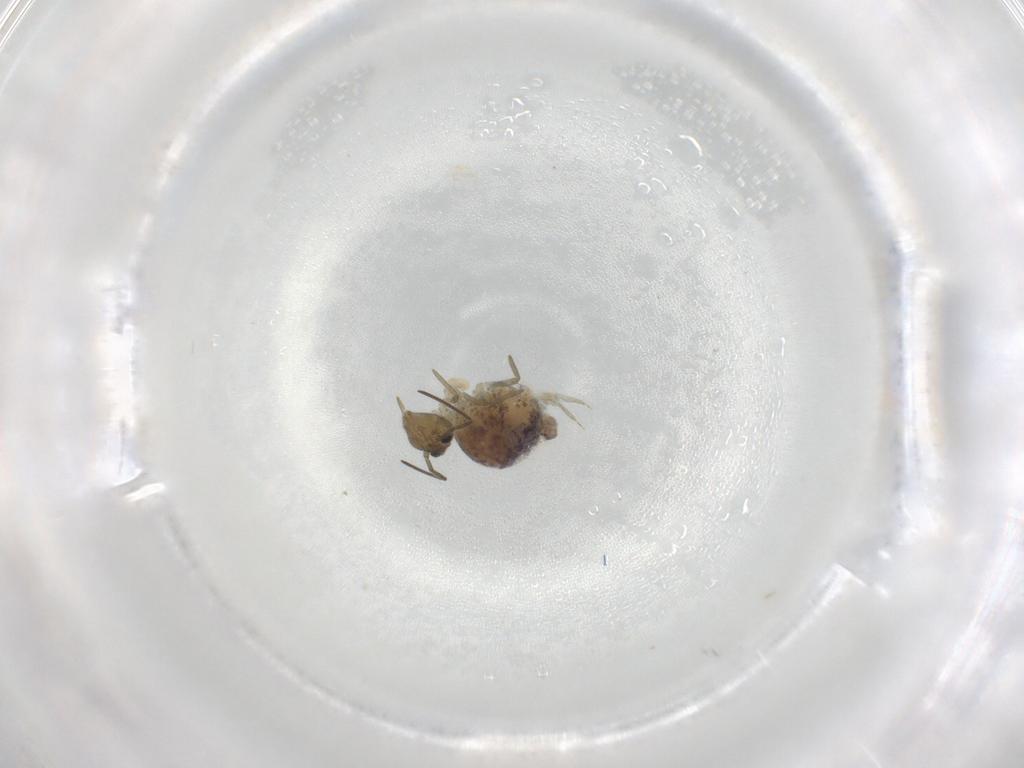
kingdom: Animalia
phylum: Arthropoda
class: Collembola
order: Symphypleona
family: Sminthuridae
